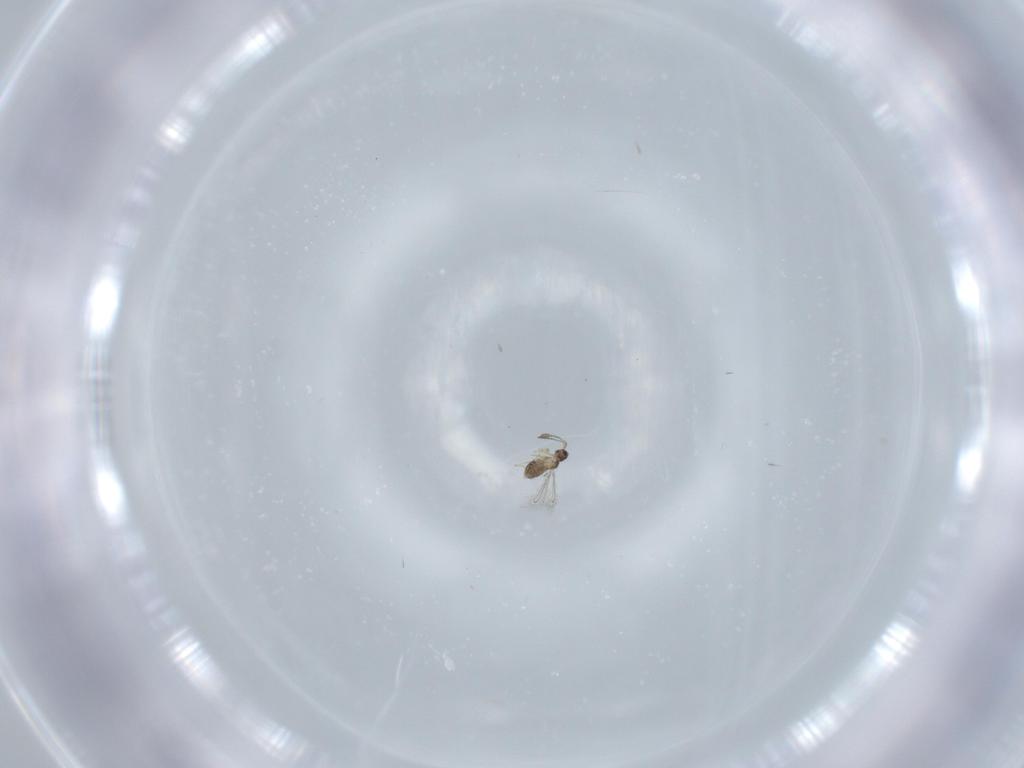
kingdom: Animalia
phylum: Arthropoda
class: Insecta
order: Hymenoptera
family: Mymaridae
